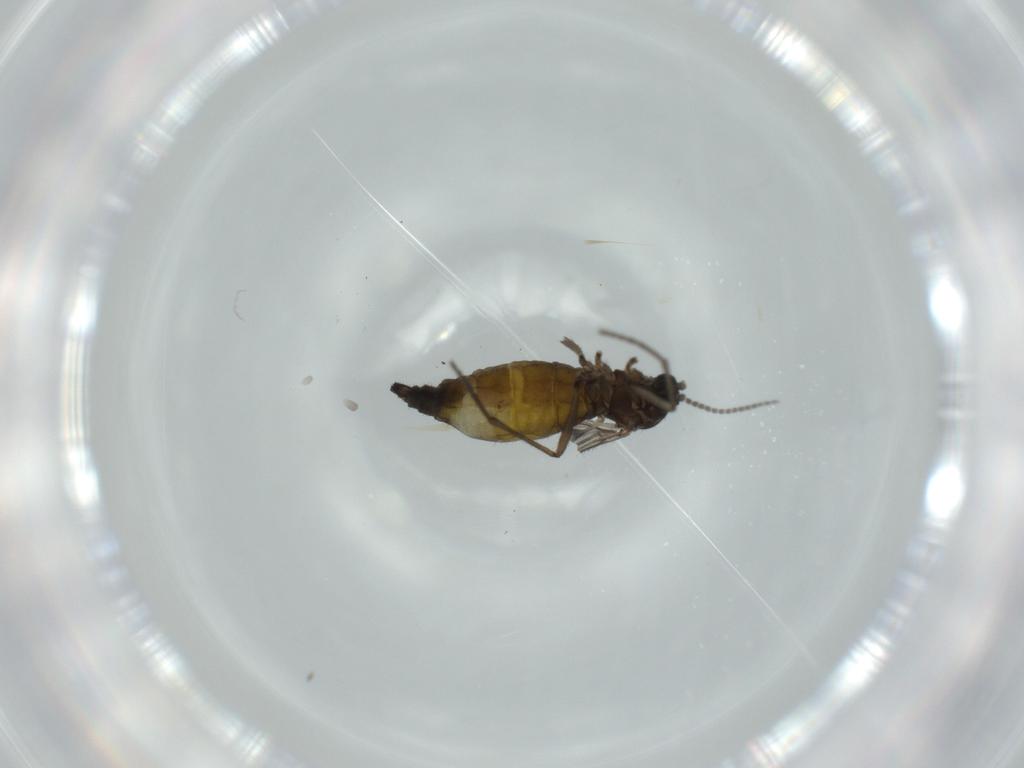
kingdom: Animalia
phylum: Arthropoda
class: Insecta
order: Diptera
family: Sciaridae
